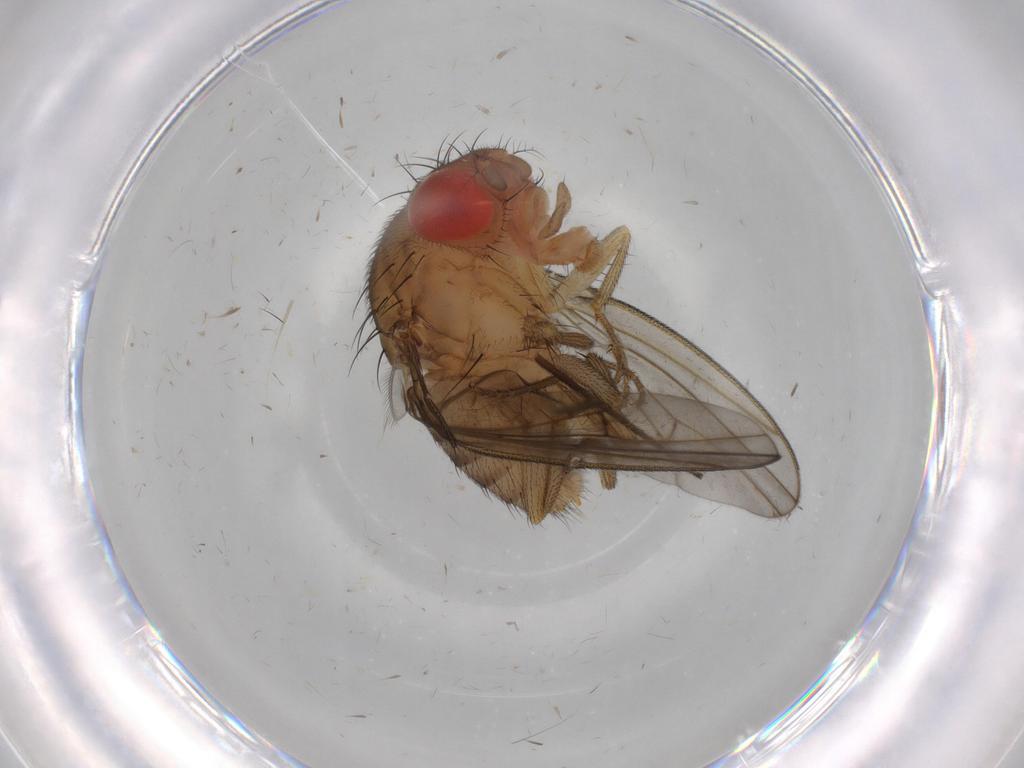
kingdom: Animalia
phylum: Arthropoda
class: Insecta
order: Diptera
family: Drosophilidae
